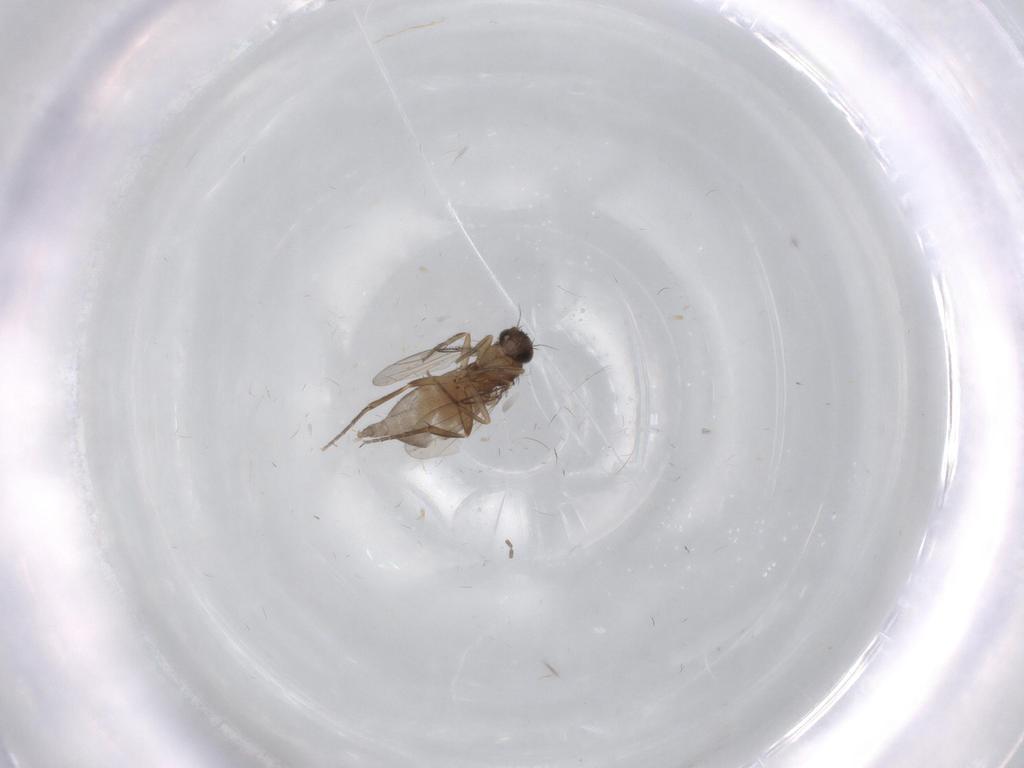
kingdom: Animalia
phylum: Arthropoda
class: Insecta
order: Diptera
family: Phoridae
